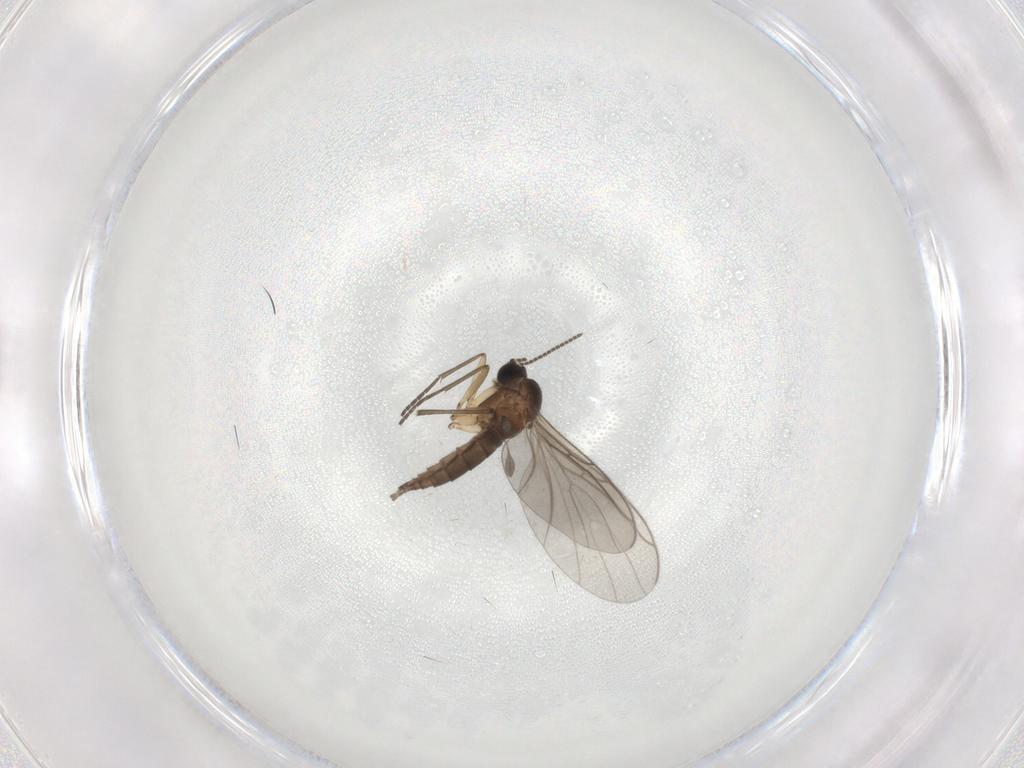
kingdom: Animalia
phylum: Arthropoda
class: Insecta
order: Diptera
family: Sciaridae
